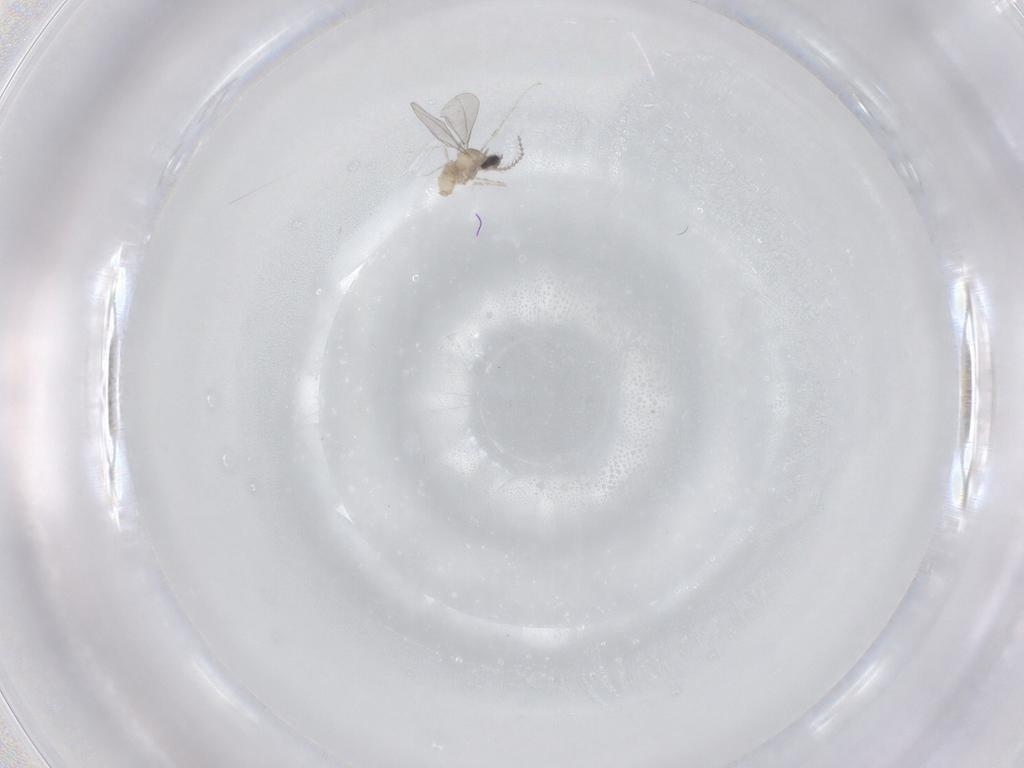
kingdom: Animalia
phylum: Arthropoda
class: Insecta
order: Diptera
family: Cecidomyiidae
